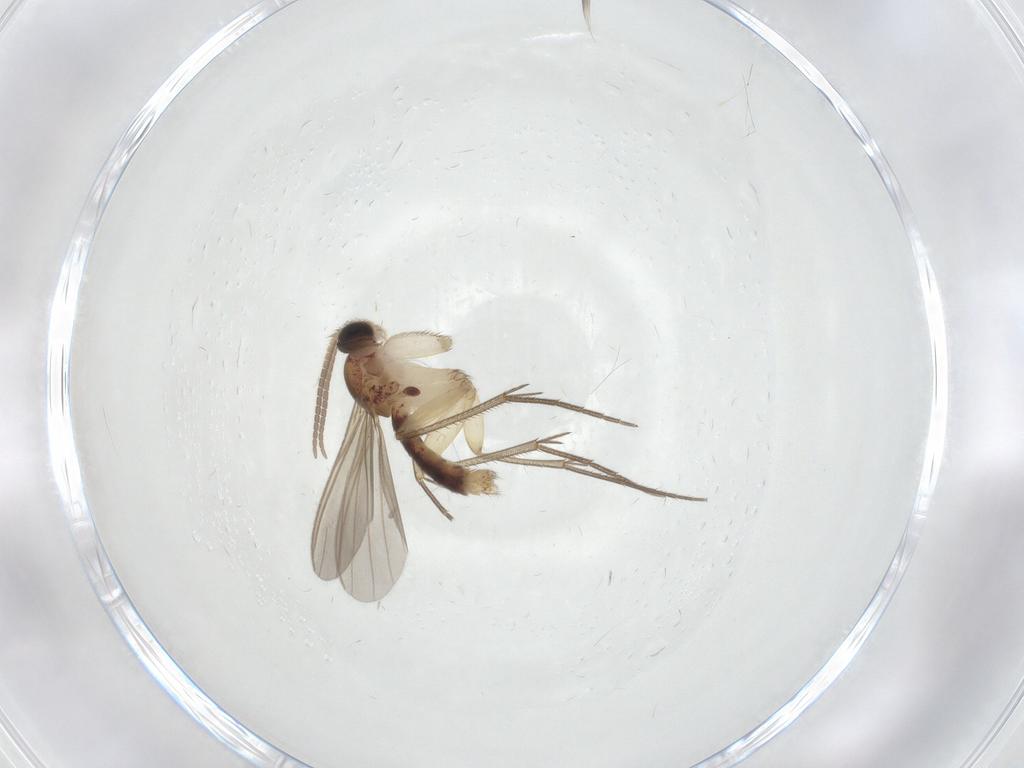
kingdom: Animalia
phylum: Arthropoda
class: Insecta
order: Diptera
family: Mycetophilidae
